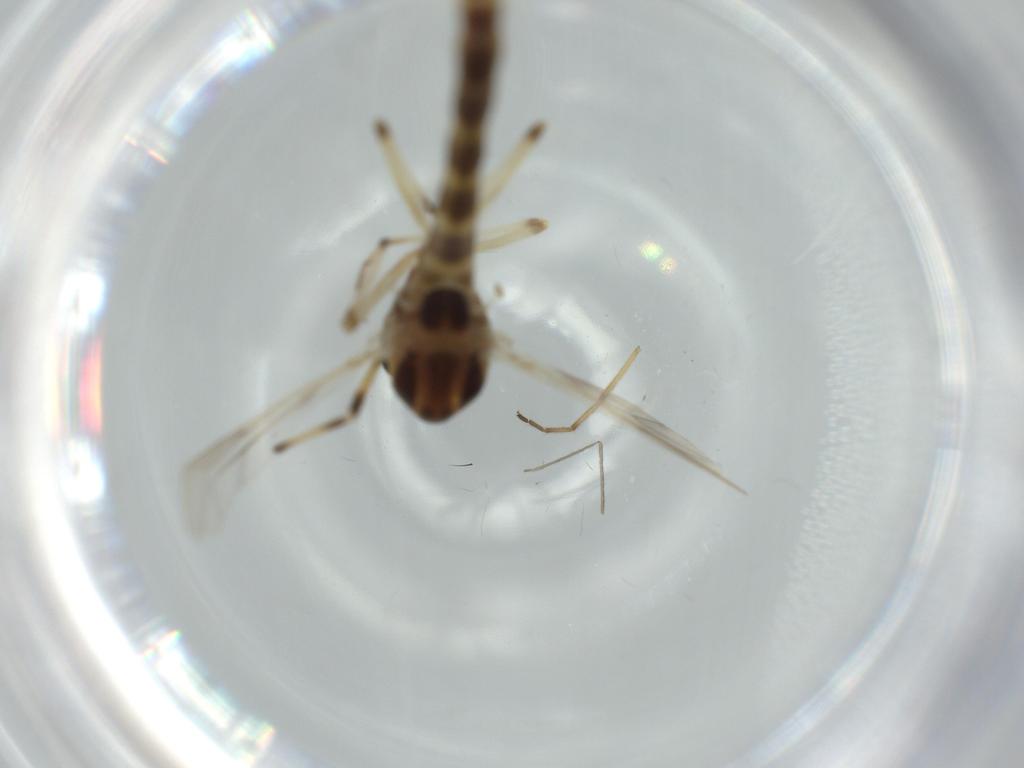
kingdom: Animalia
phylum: Arthropoda
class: Insecta
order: Diptera
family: Chironomidae
